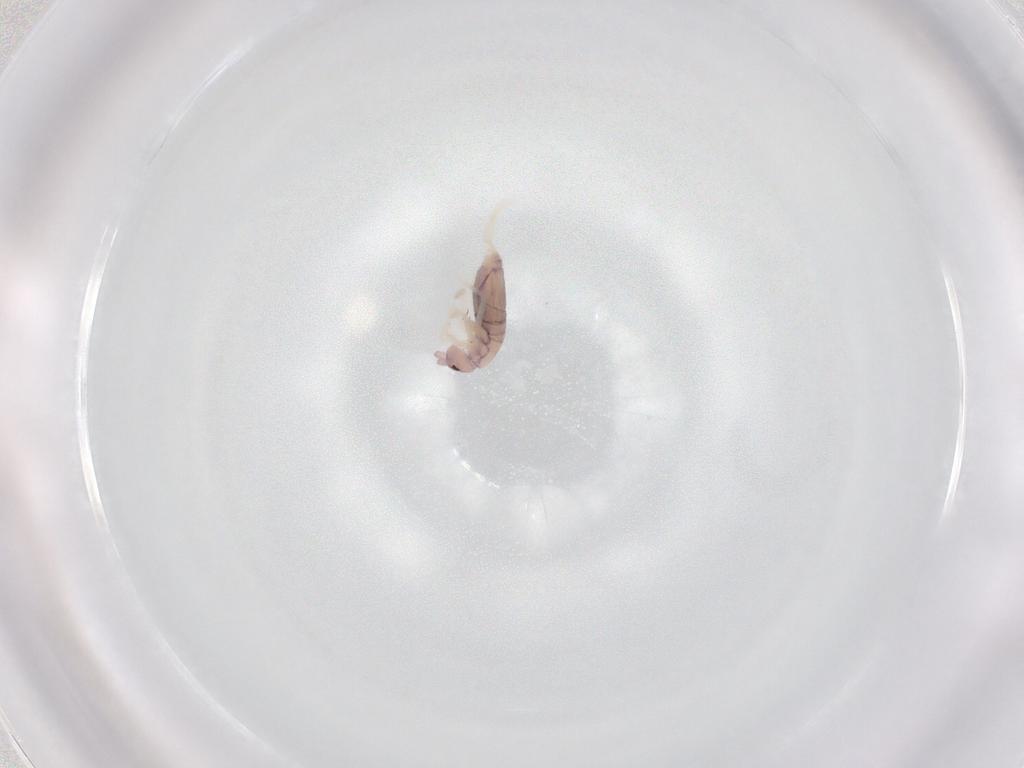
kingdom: Animalia
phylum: Arthropoda
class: Collembola
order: Entomobryomorpha
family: Entomobryidae
